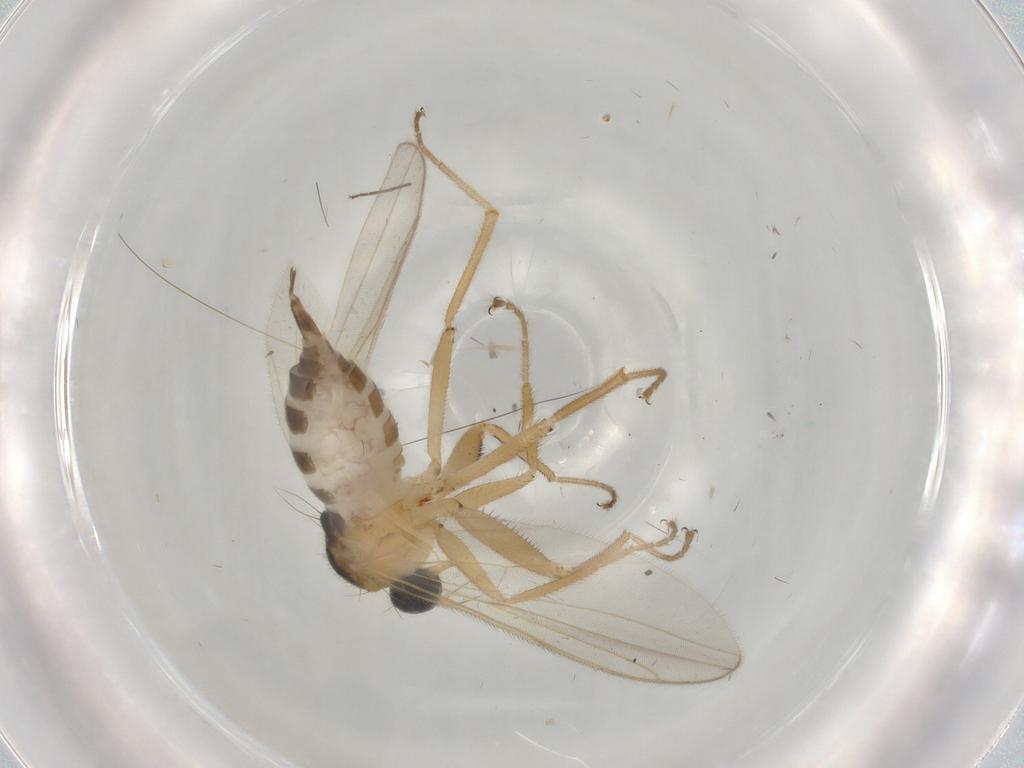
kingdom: Animalia
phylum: Arthropoda
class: Insecta
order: Diptera
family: Hybotidae
